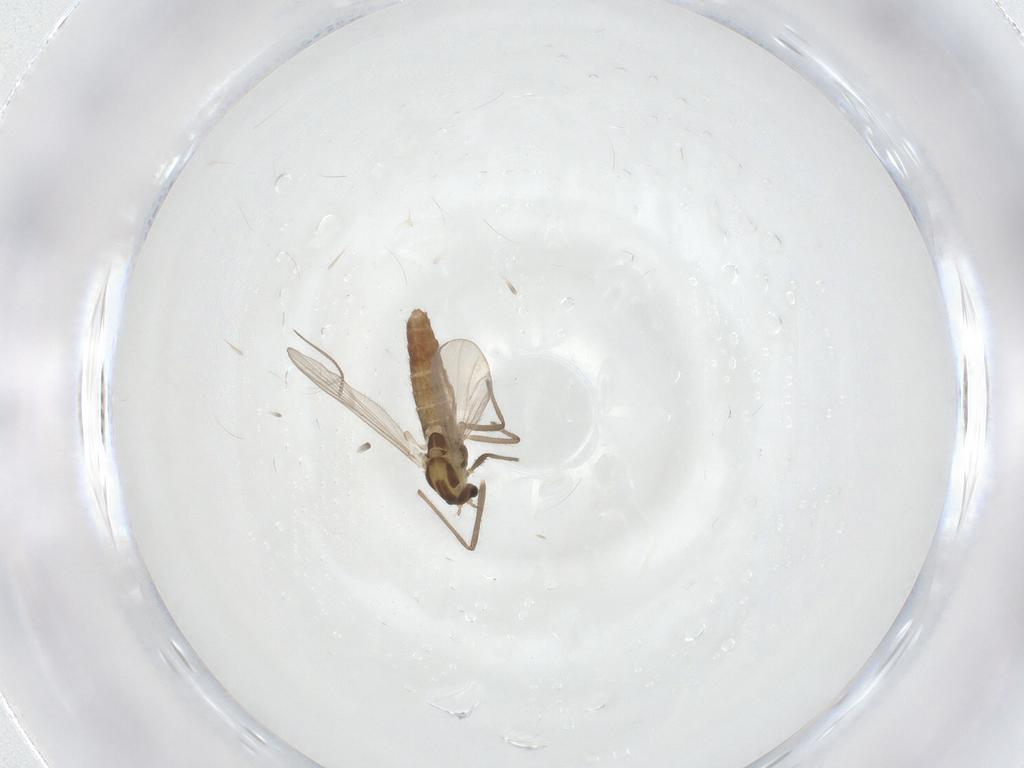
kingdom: Animalia
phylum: Arthropoda
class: Insecta
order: Diptera
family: Chironomidae
